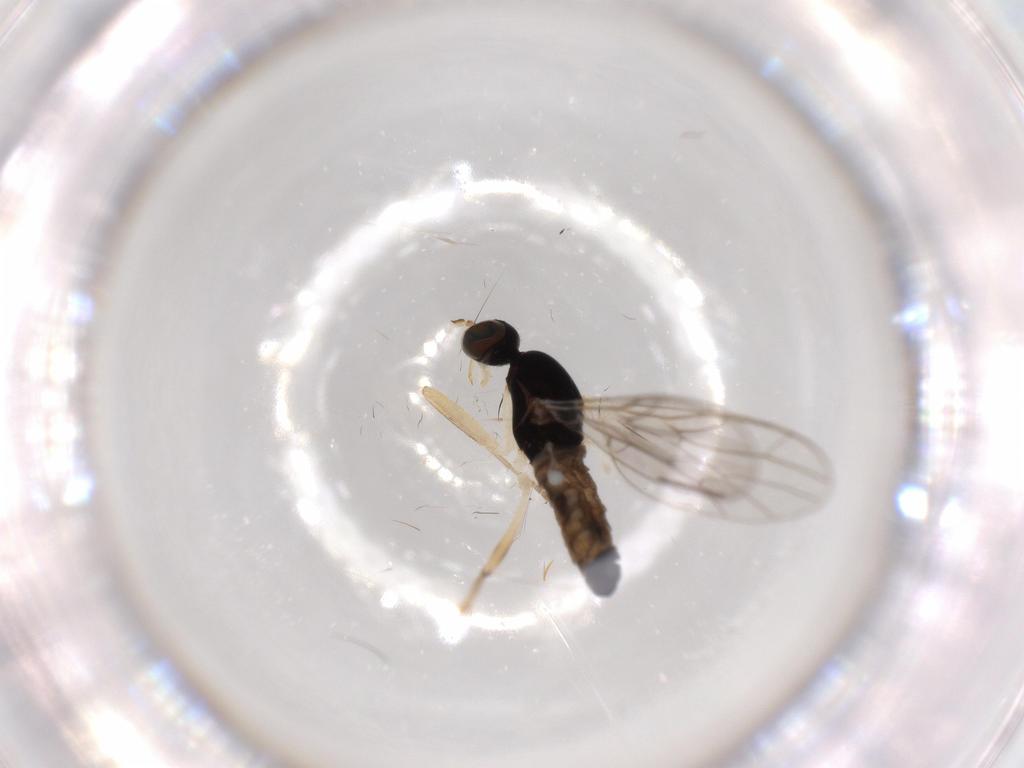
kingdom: Animalia
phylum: Arthropoda
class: Insecta
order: Diptera
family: Empididae
